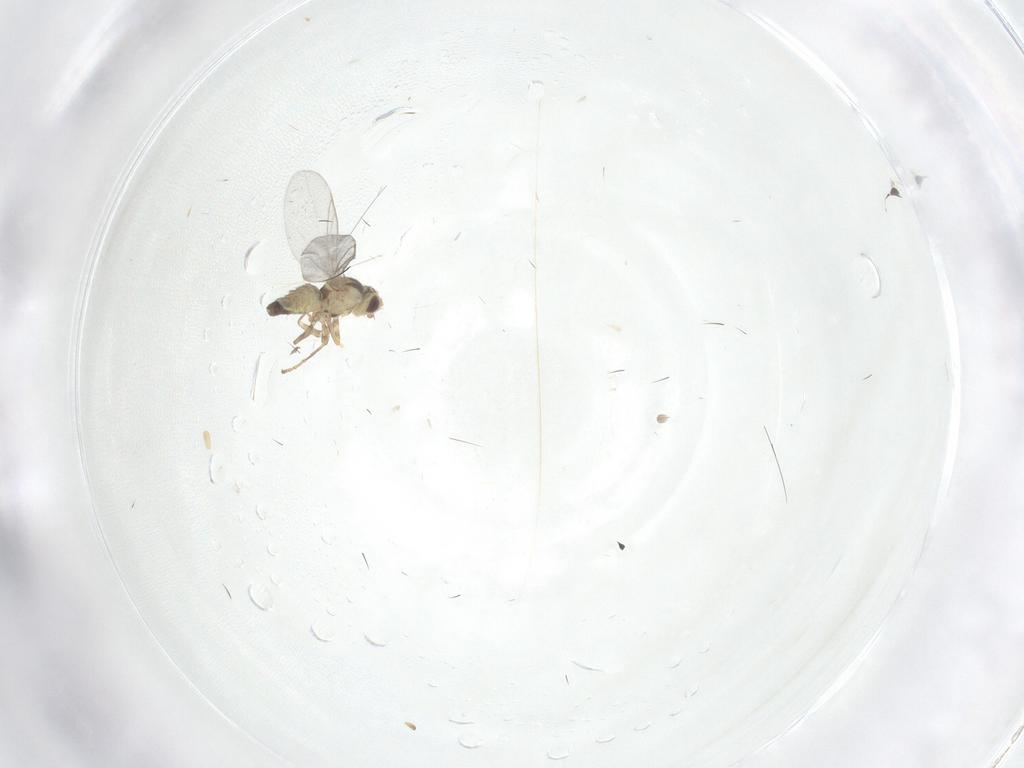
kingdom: Animalia
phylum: Arthropoda
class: Insecta
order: Diptera
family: Agromyzidae
